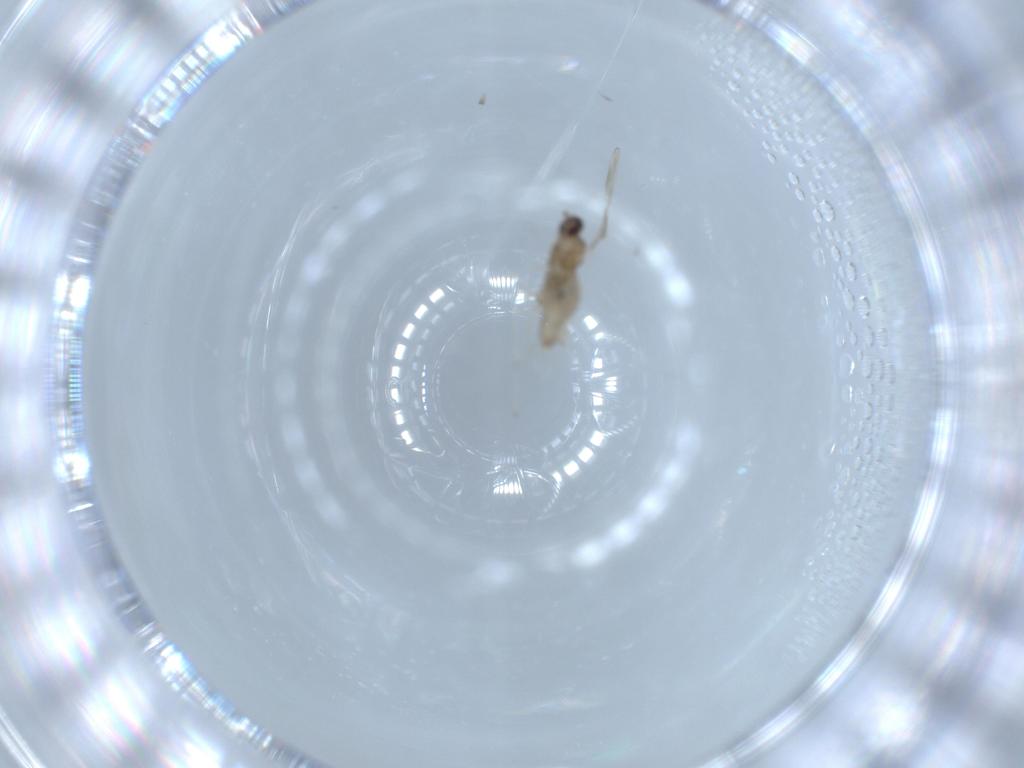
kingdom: Animalia
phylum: Arthropoda
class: Insecta
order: Diptera
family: Cecidomyiidae
